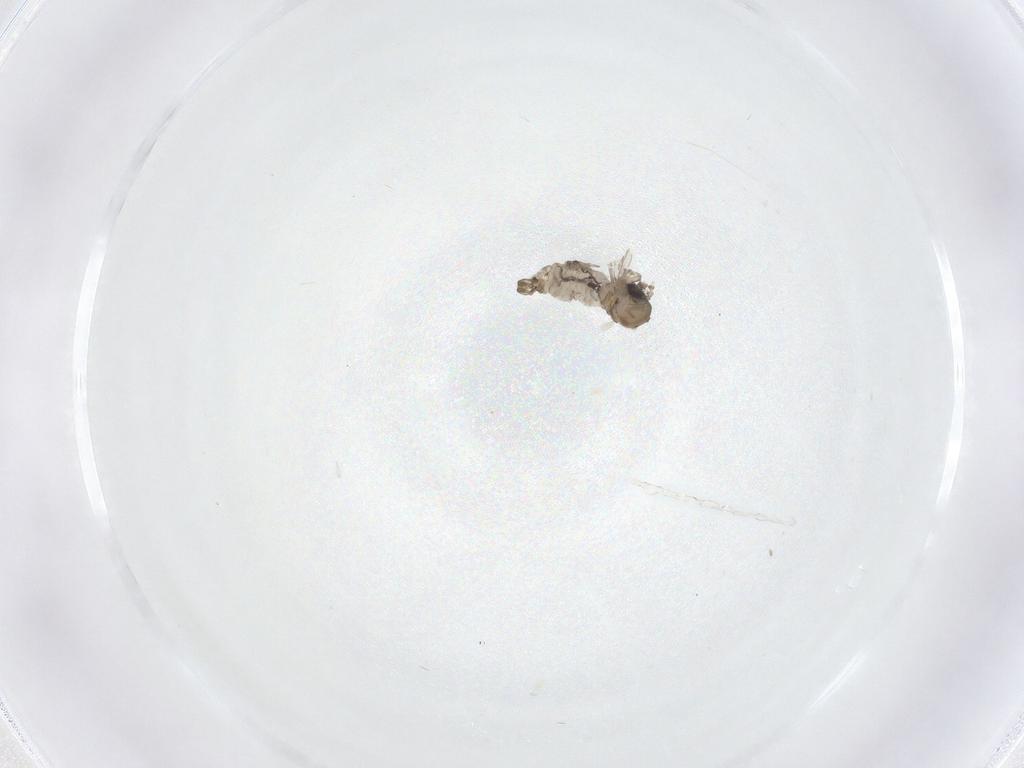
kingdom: Animalia
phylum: Arthropoda
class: Insecta
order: Diptera
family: Psychodidae
